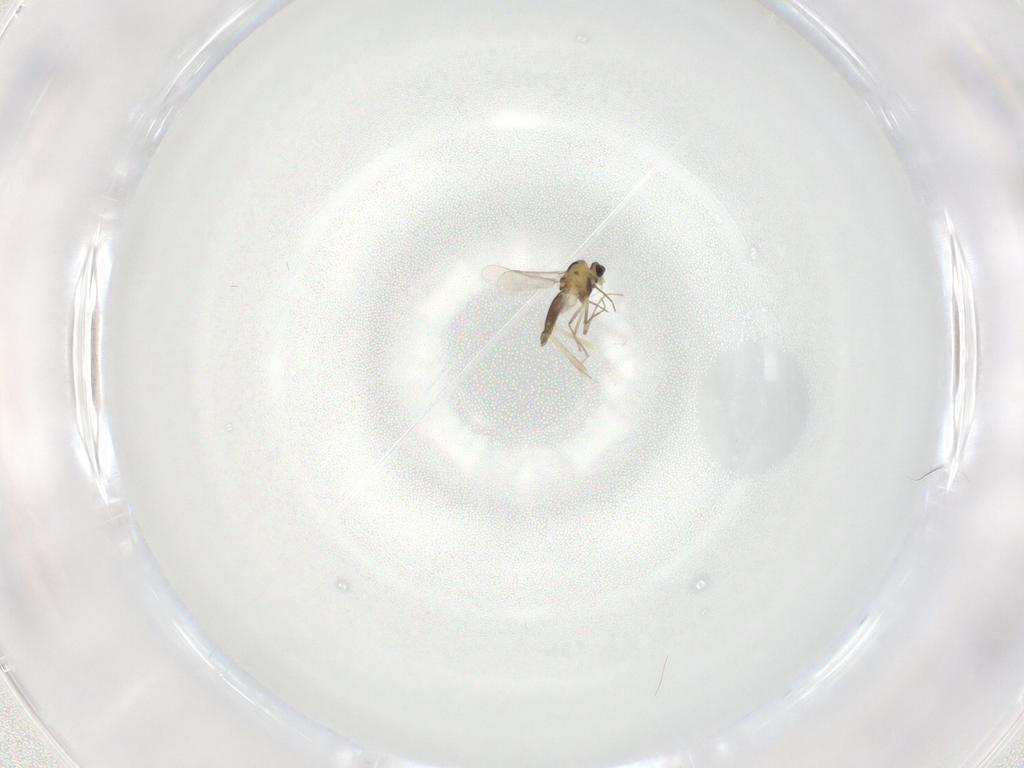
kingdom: Animalia
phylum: Arthropoda
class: Insecta
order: Diptera
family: Chironomidae
